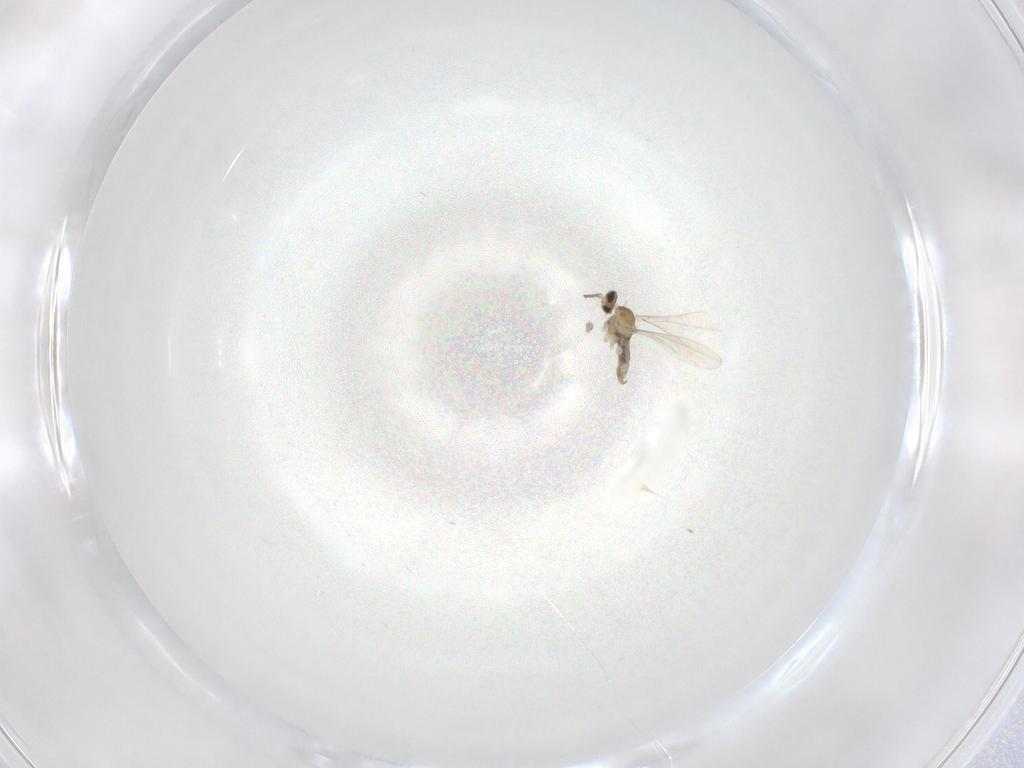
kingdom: Animalia
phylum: Arthropoda
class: Insecta
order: Diptera
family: Cecidomyiidae
